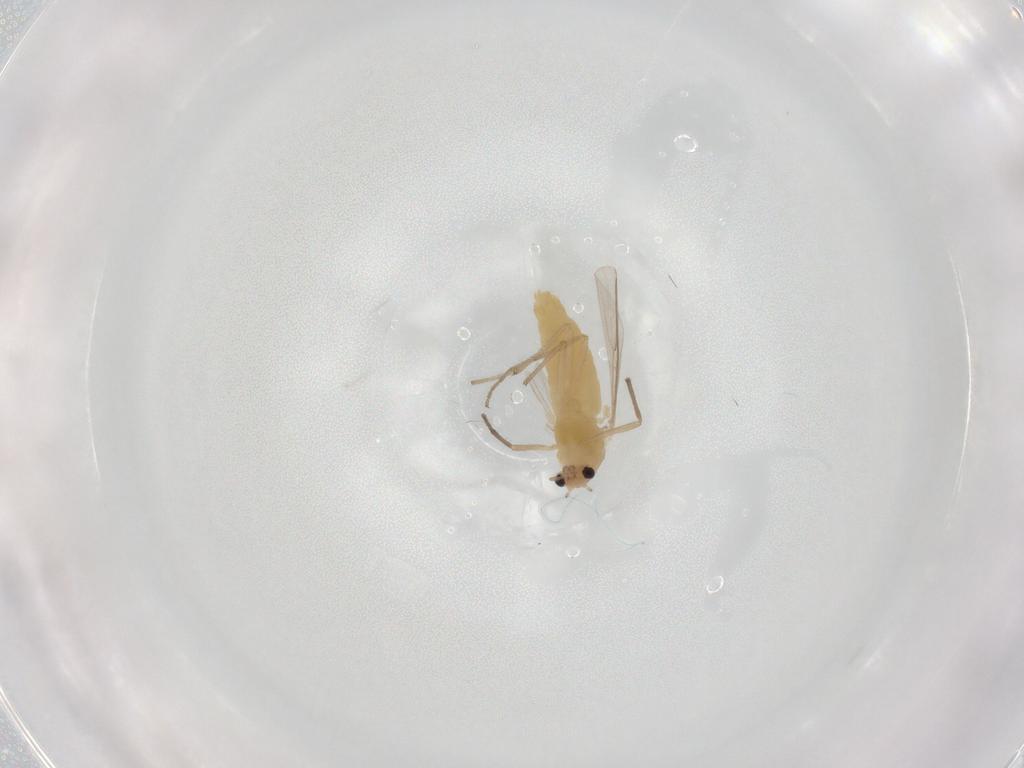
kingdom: Animalia
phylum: Arthropoda
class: Insecta
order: Diptera
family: Chironomidae
